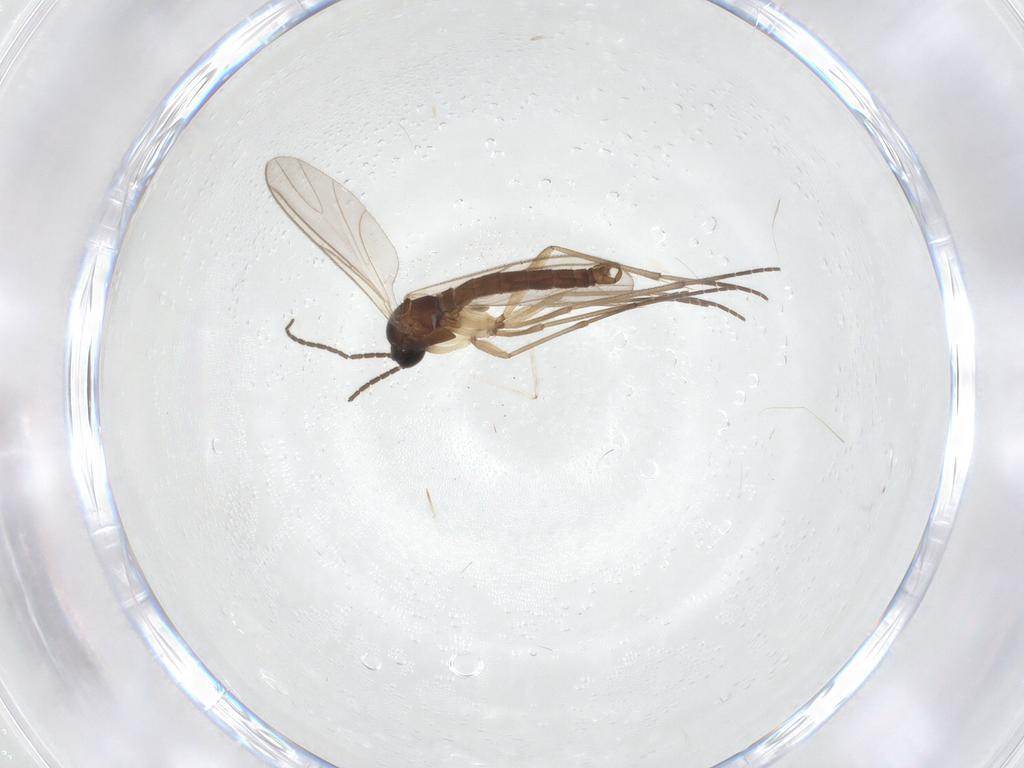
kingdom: Animalia
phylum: Arthropoda
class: Insecta
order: Diptera
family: Sciaridae
